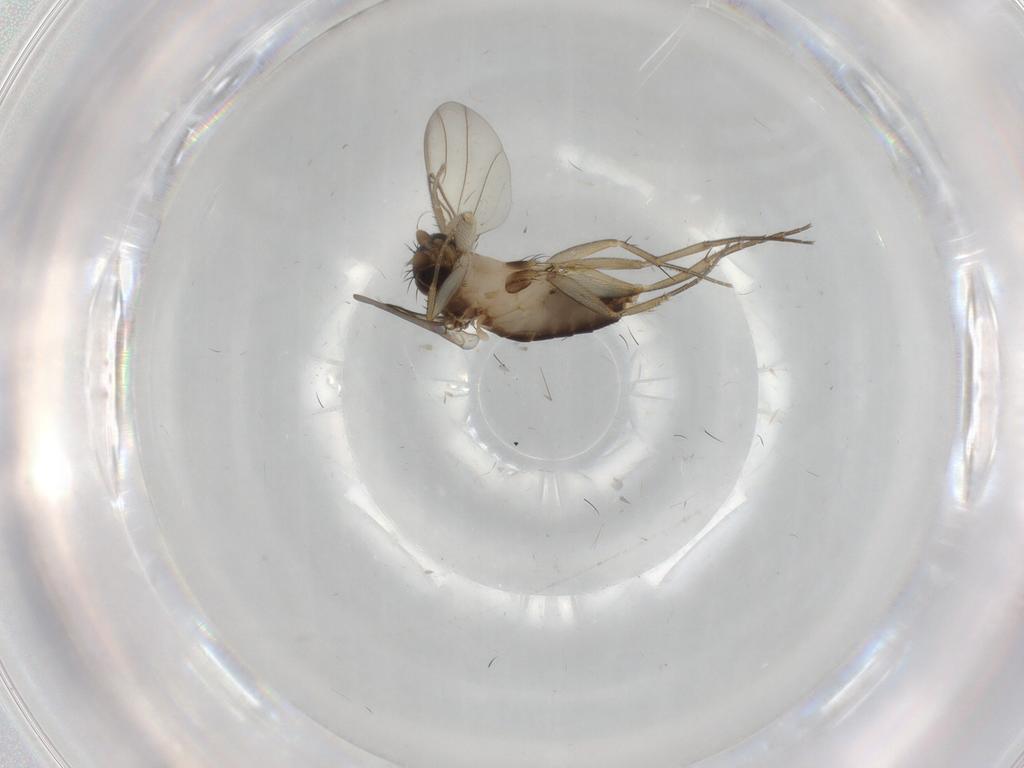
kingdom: Animalia
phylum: Arthropoda
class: Insecta
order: Diptera
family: Phoridae
